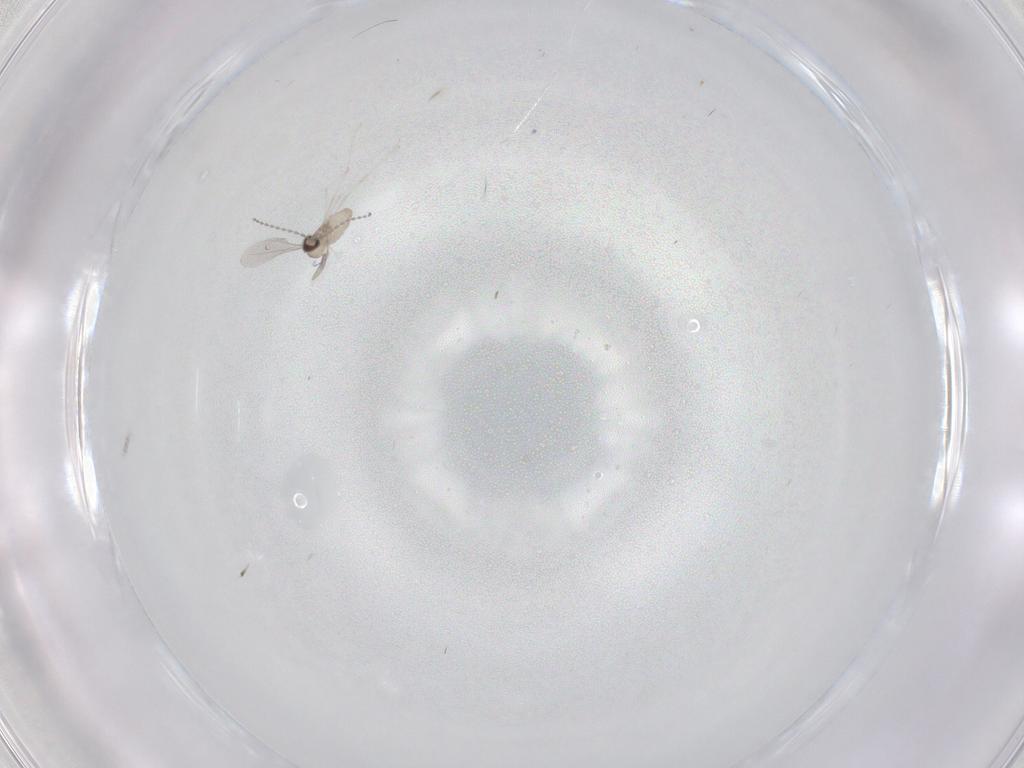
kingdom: Animalia
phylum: Arthropoda
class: Insecta
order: Diptera
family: Cecidomyiidae
